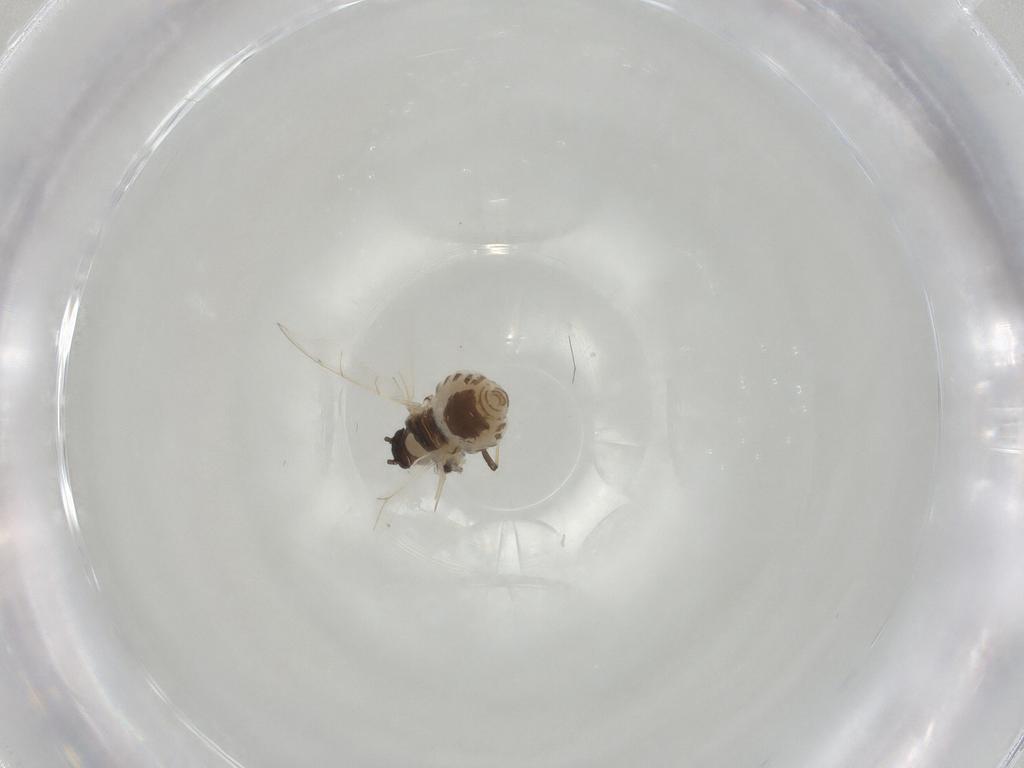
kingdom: Animalia
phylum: Arthropoda
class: Insecta
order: Hemiptera
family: Aphididae
